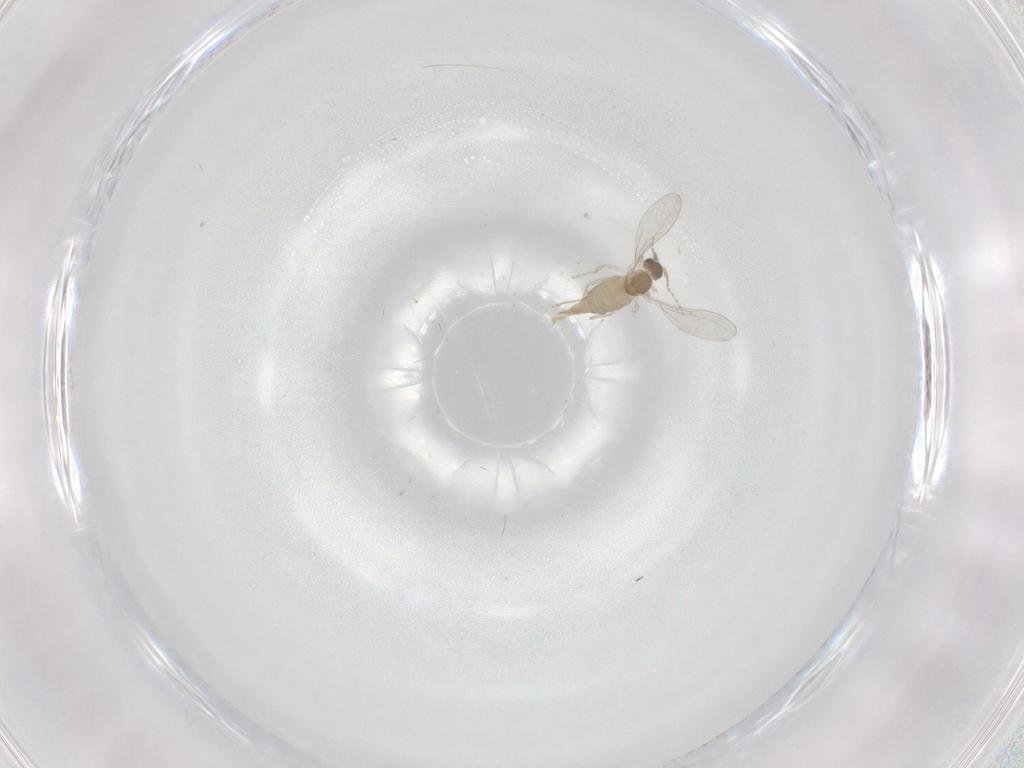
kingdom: Animalia
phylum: Arthropoda
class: Insecta
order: Diptera
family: Cecidomyiidae
